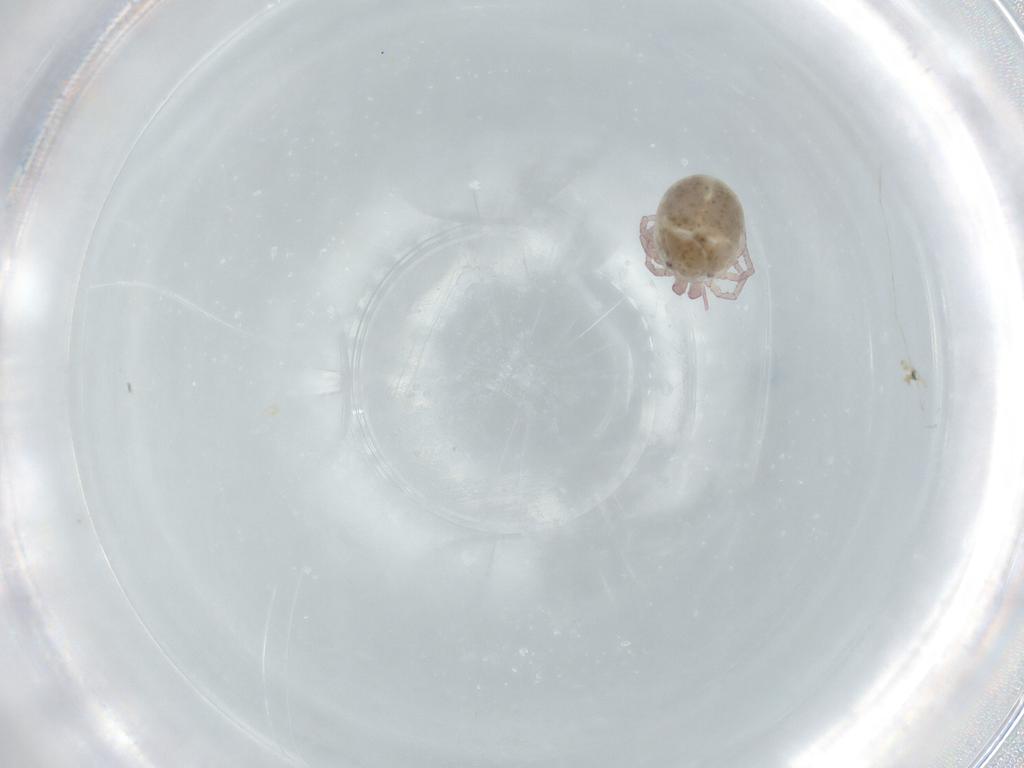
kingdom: Animalia
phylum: Arthropoda
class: Arachnida
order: Trombidiformes
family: Pionidae
